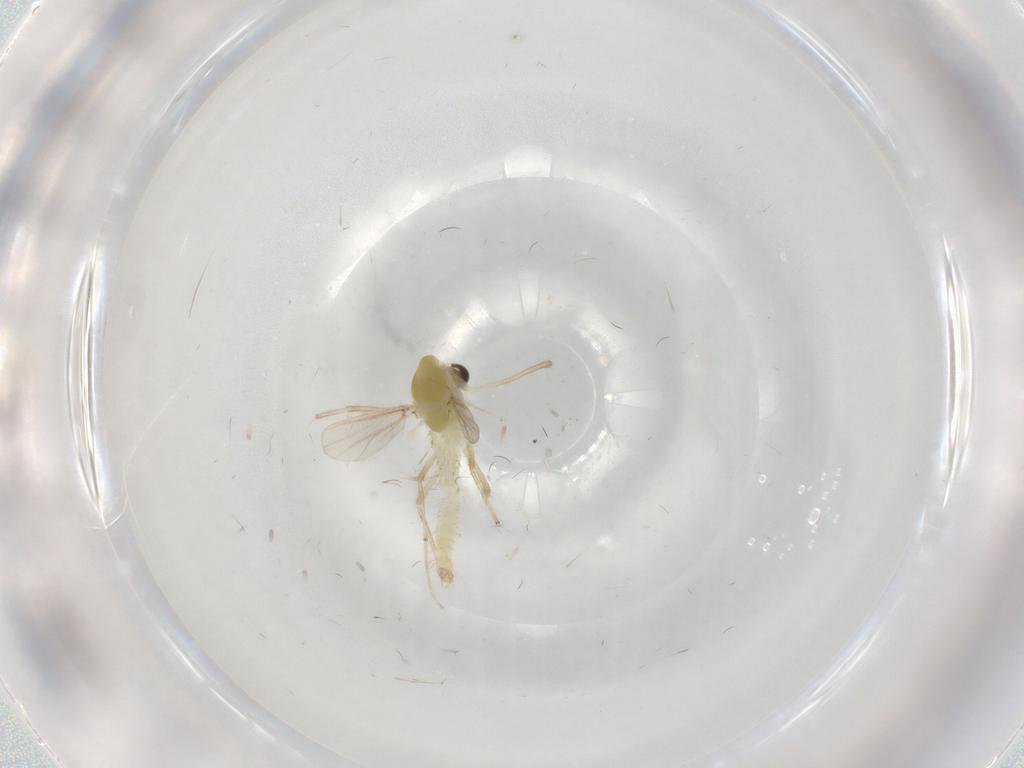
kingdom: Animalia
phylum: Arthropoda
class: Insecta
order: Diptera
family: Chironomidae
